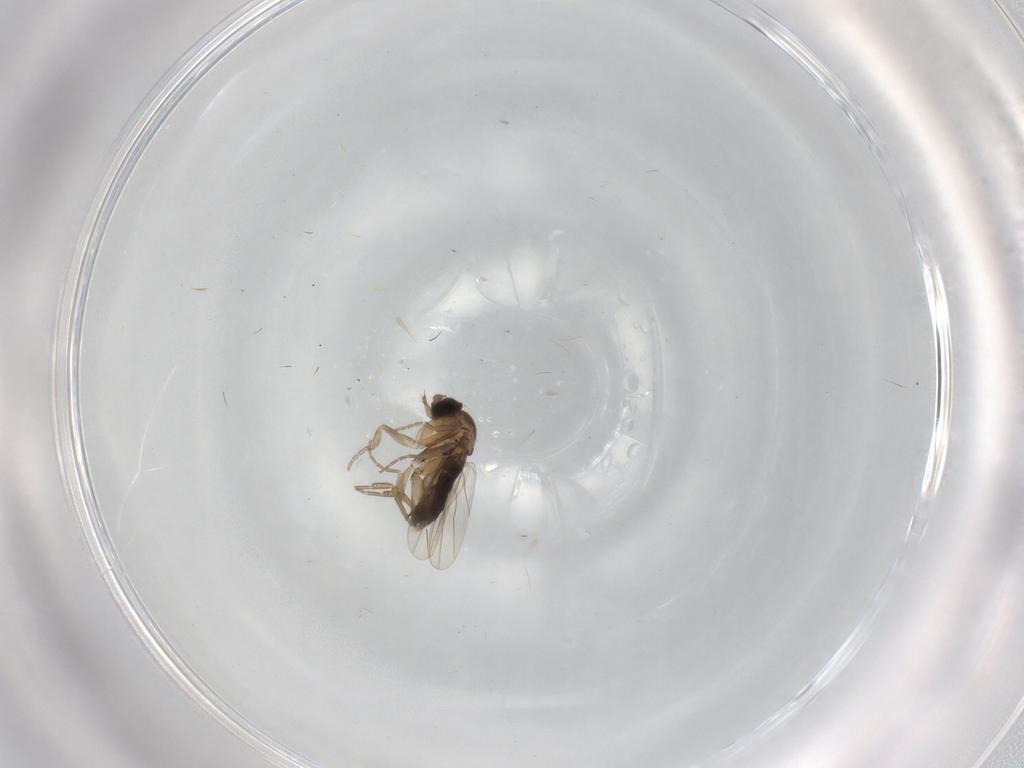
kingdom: Animalia
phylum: Arthropoda
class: Insecta
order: Diptera
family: Phoridae
